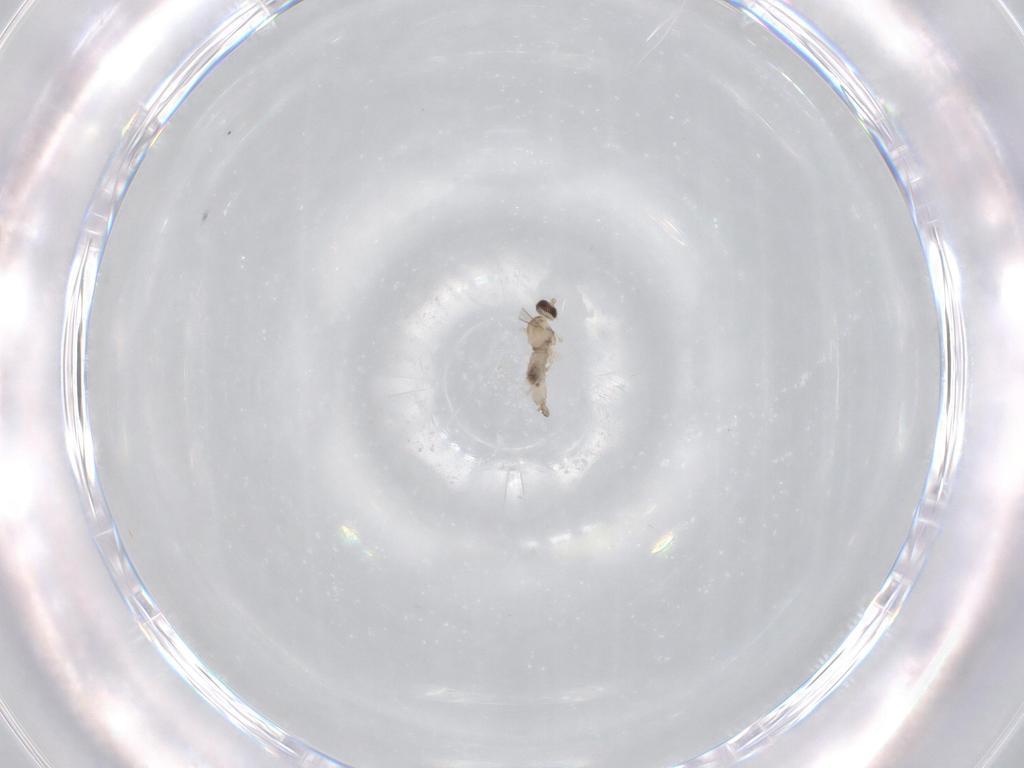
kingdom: Animalia
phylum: Arthropoda
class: Insecta
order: Diptera
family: Cecidomyiidae
